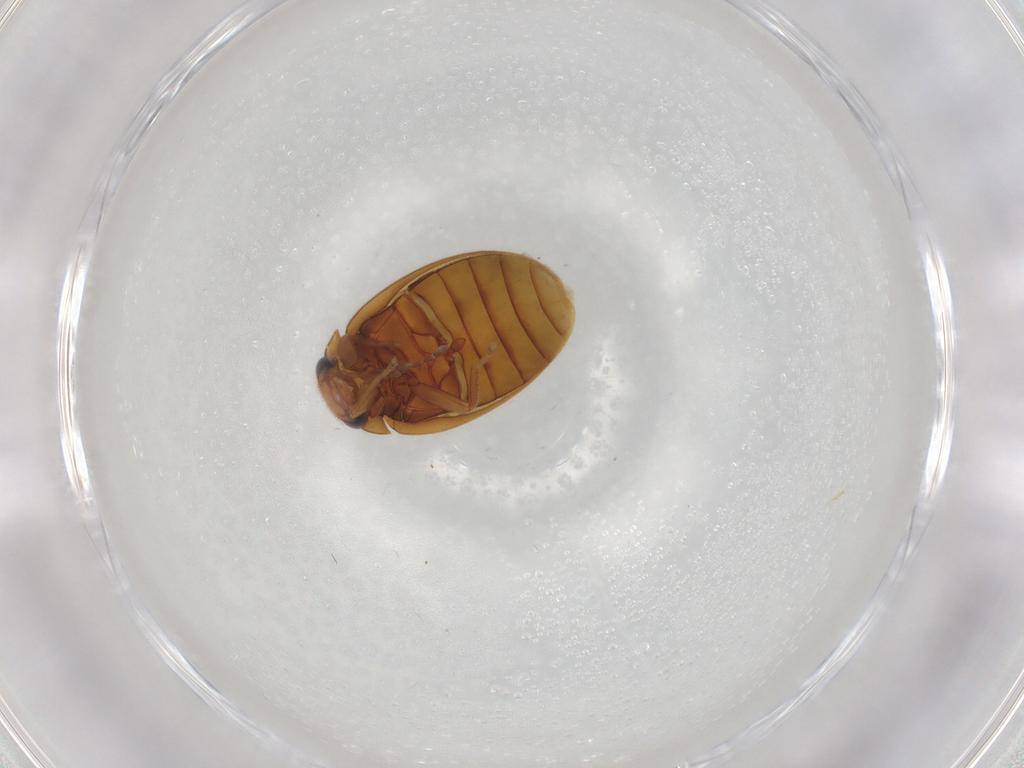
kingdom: Animalia
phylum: Arthropoda
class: Insecta
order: Coleoptera
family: Scirtidae
